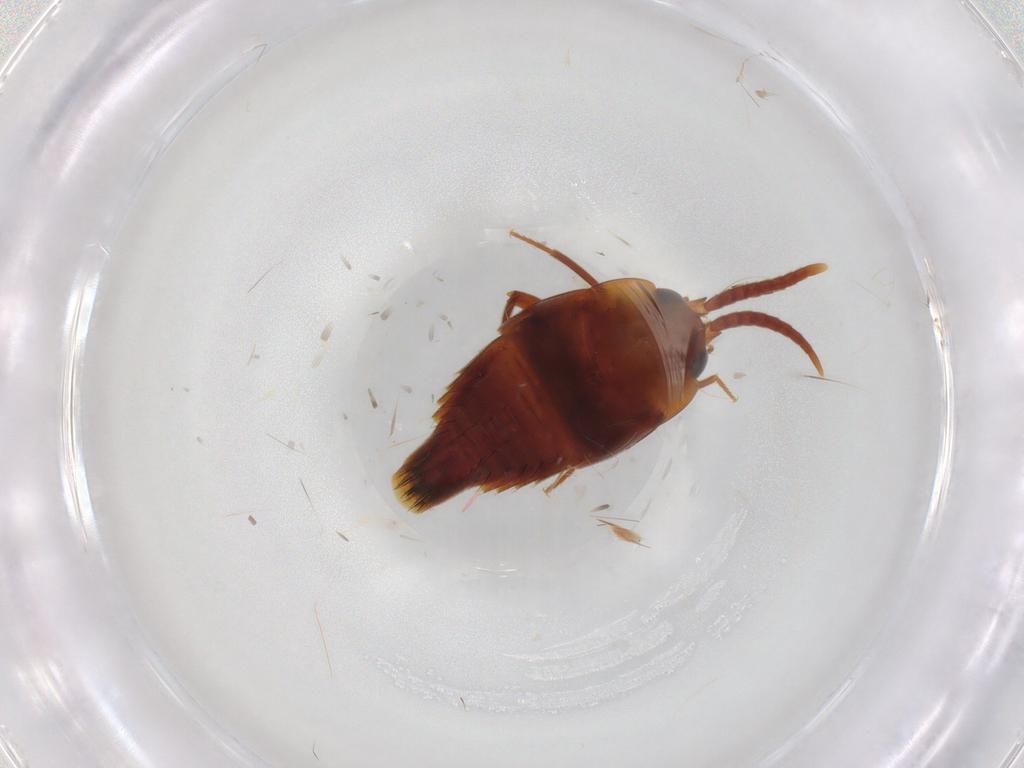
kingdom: Animalia
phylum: Arthropoda
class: Insecta
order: Coleoptera
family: Staphylinidae
